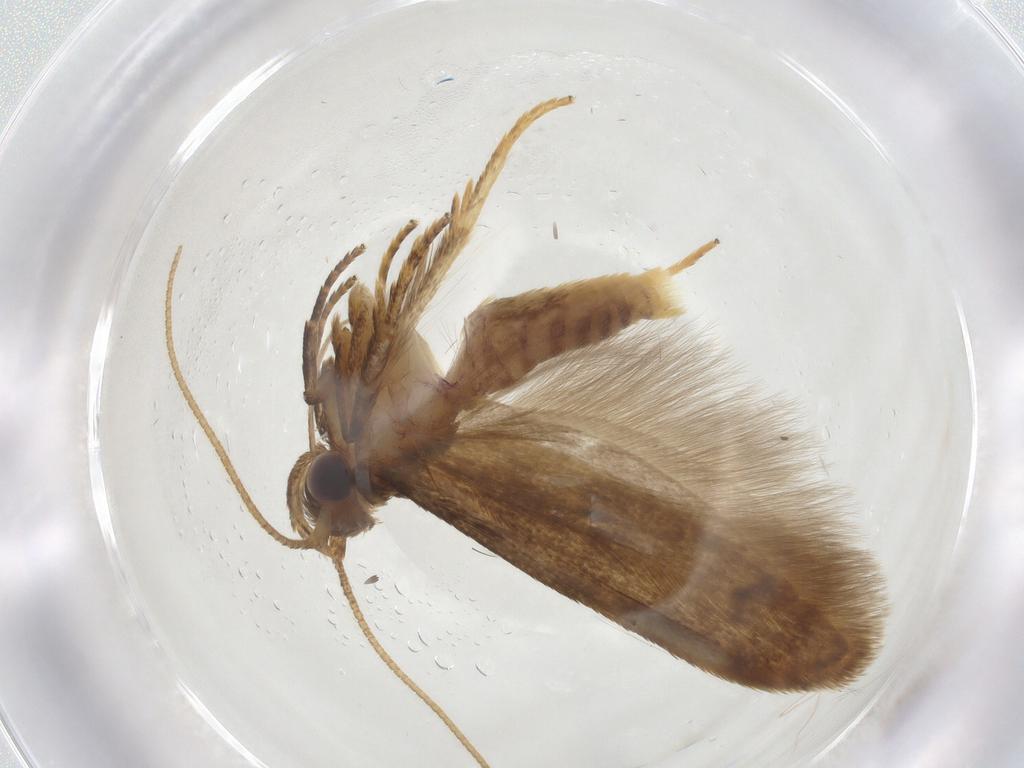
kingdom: Animalia
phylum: Arthropoda
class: Insecta
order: Lepidoptera
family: Blastobasidae
